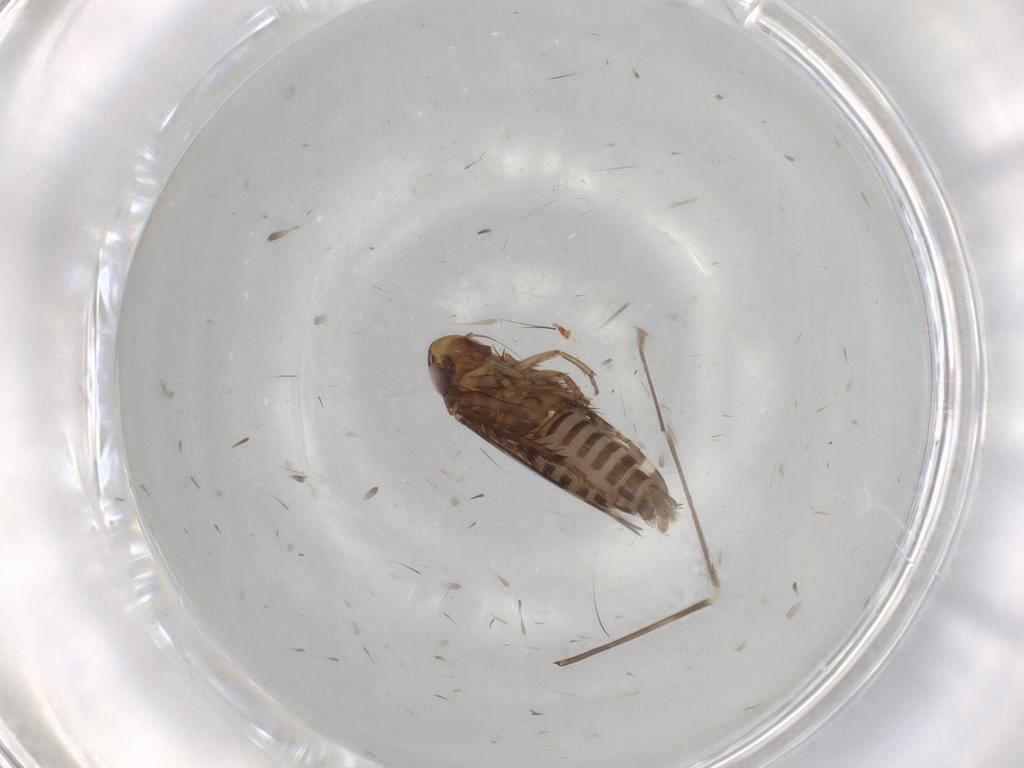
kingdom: Animalia
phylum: Arthropoda
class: Insecta
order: Hemiptera
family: Cicadellidae
